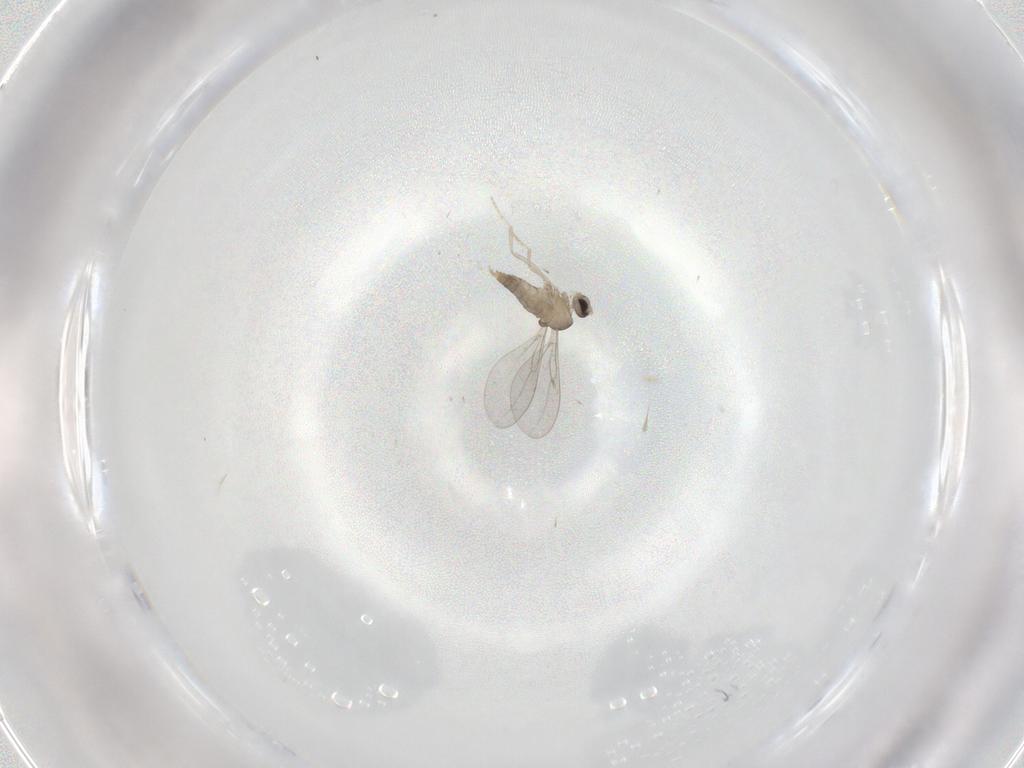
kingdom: Animalia
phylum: Arthropoda
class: Insecta
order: Diptera
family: Cecidomyiidae
